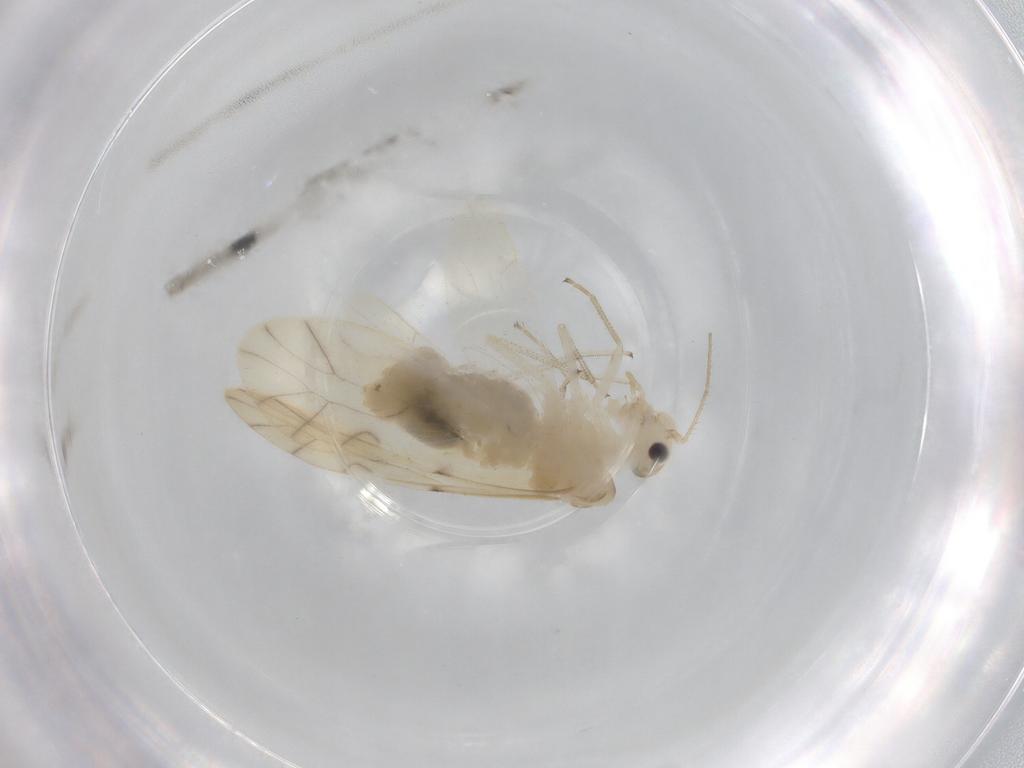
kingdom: Animalia
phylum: Arthropoda
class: Insecta
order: Psocodea
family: Caeciliusidae
